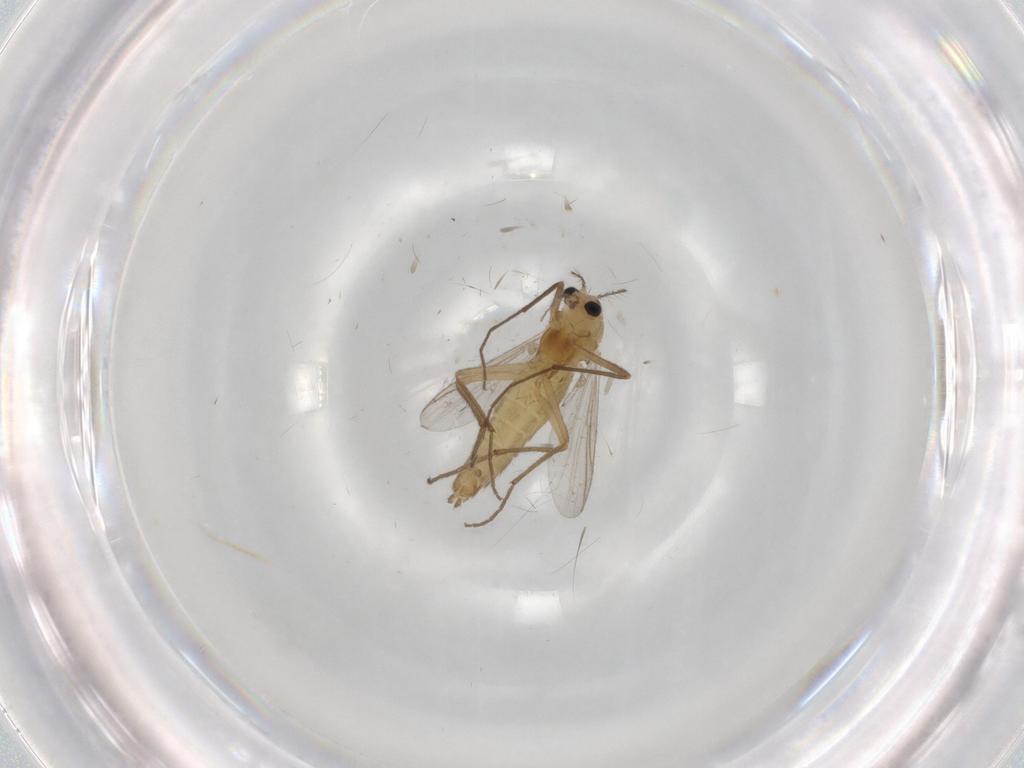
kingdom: Animalia
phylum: Arthropoda
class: Insecta
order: Diptera
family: Chironomidae
